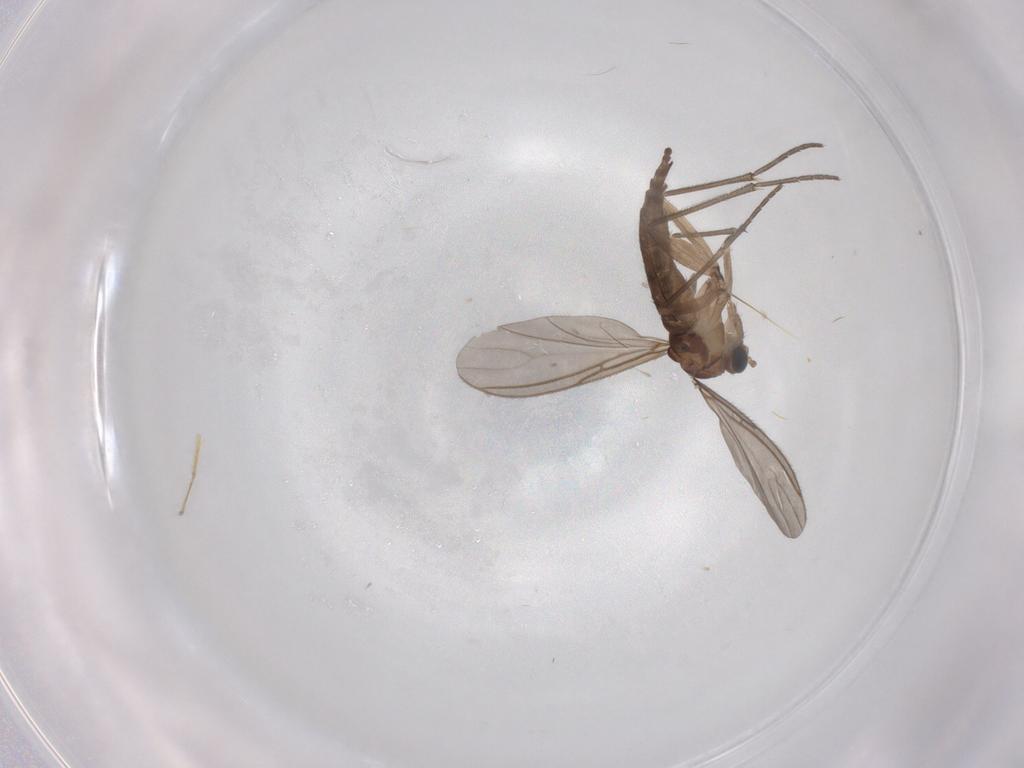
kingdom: Animalia
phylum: Arthropoda
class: Insecta
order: Diptera
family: Sciaridae
